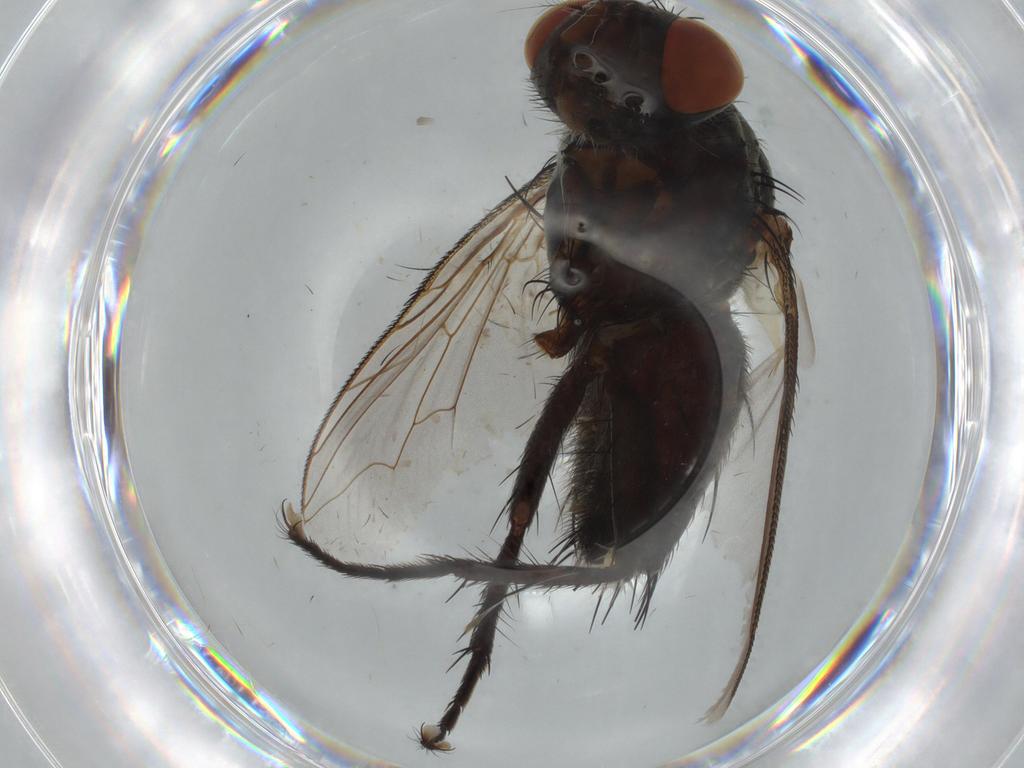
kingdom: Animalia
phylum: Arthropoda
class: Insecta
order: Diptera
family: Sarcophagidae
